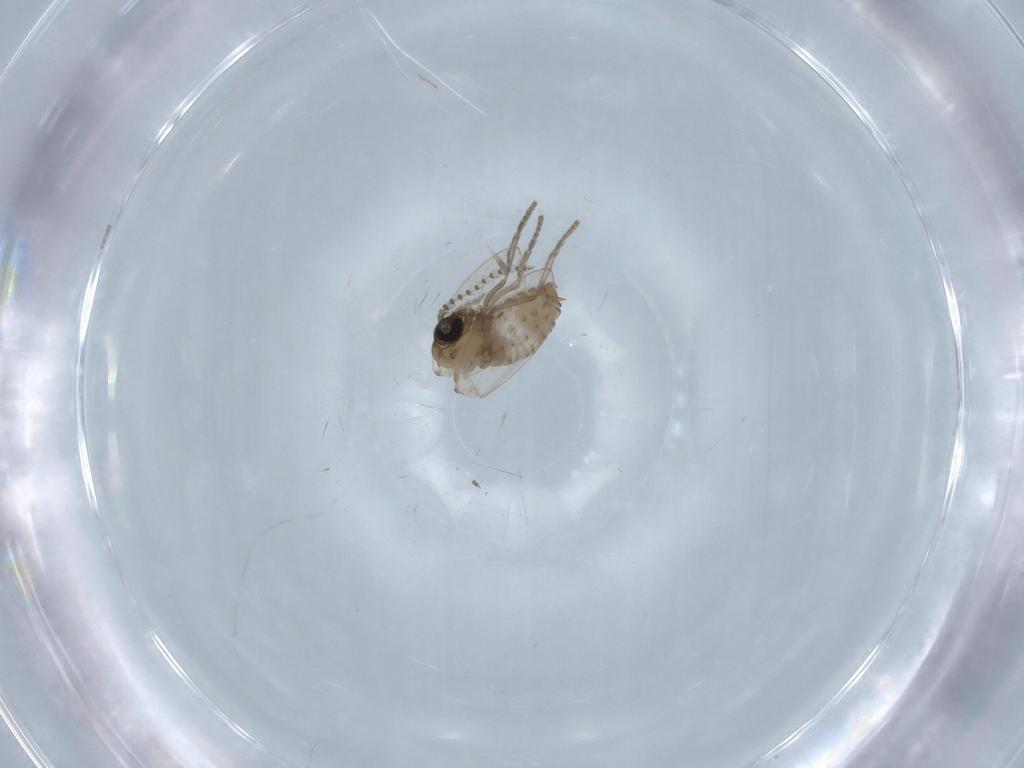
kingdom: Animalia
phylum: Arthropoda
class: Insecta
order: Diptera
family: Psychodidae
